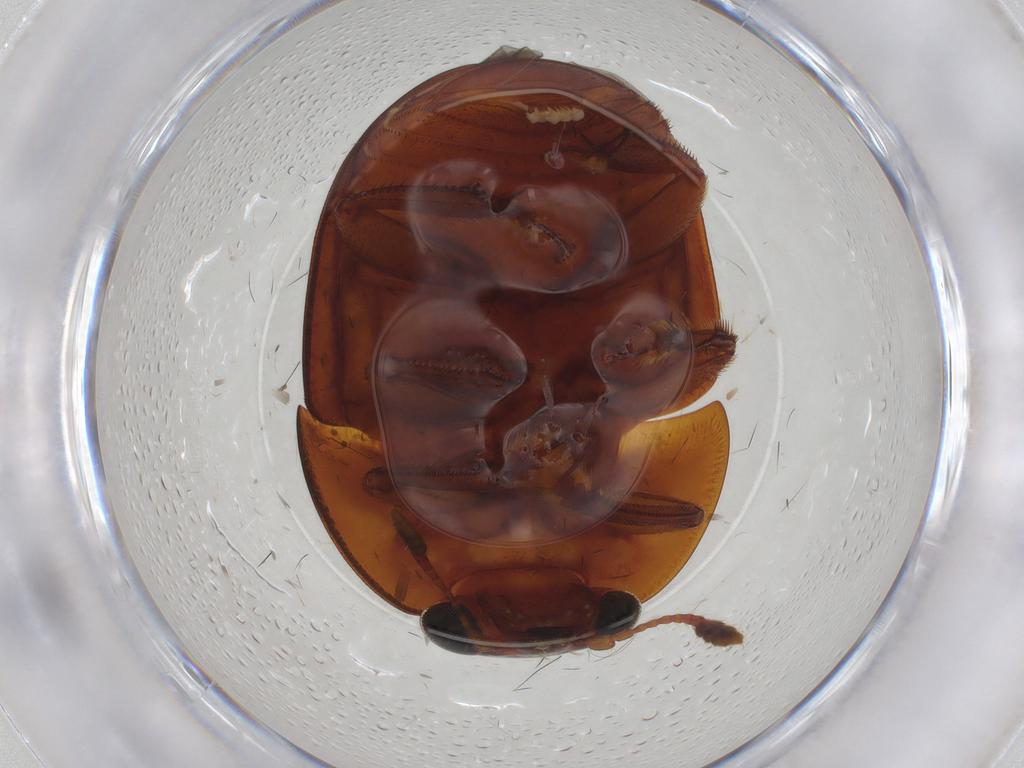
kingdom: Animalia
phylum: Arthropoda
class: Insecta
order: Coleoptera
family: Nitidulidae
